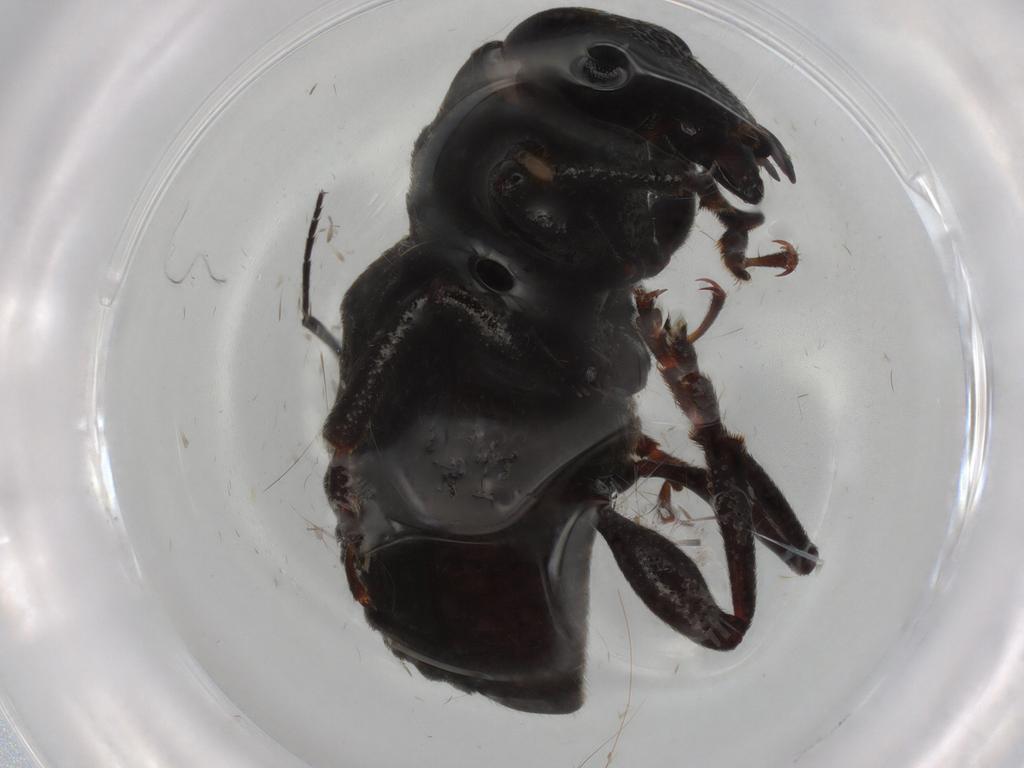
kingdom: Animalia
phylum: Arthropoda
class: Insecta
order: Coleoptera
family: Anthribidae
